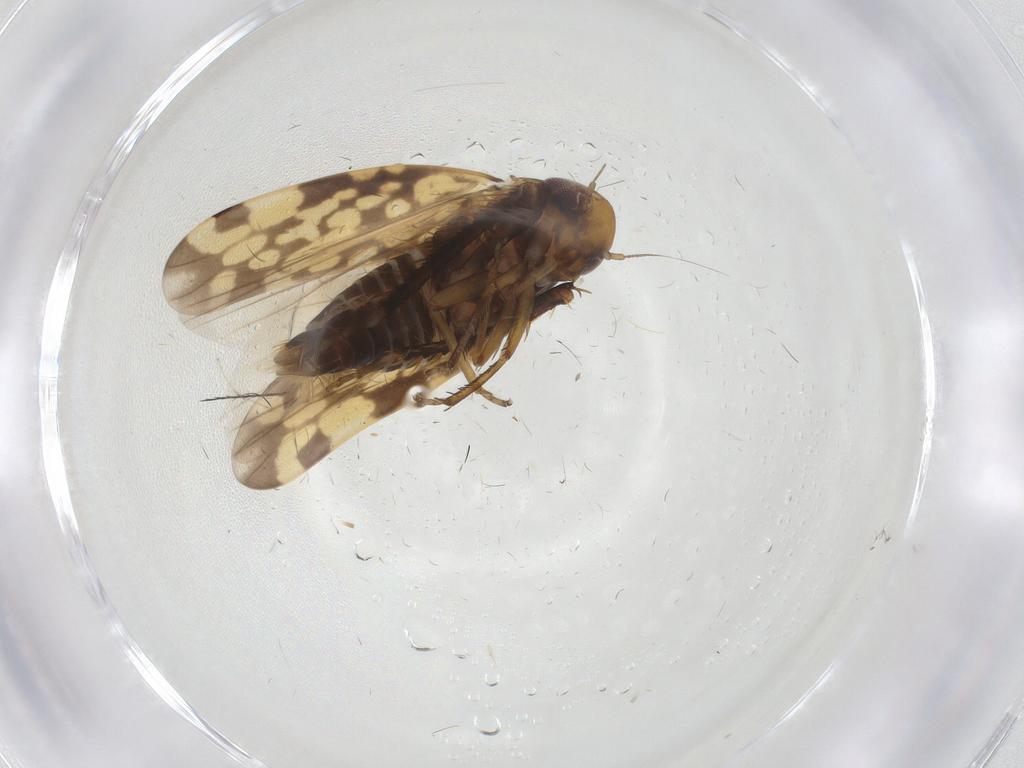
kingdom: Animalia
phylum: Arthropoda
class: Insecta
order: Hemiptera
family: Cicadellidae
